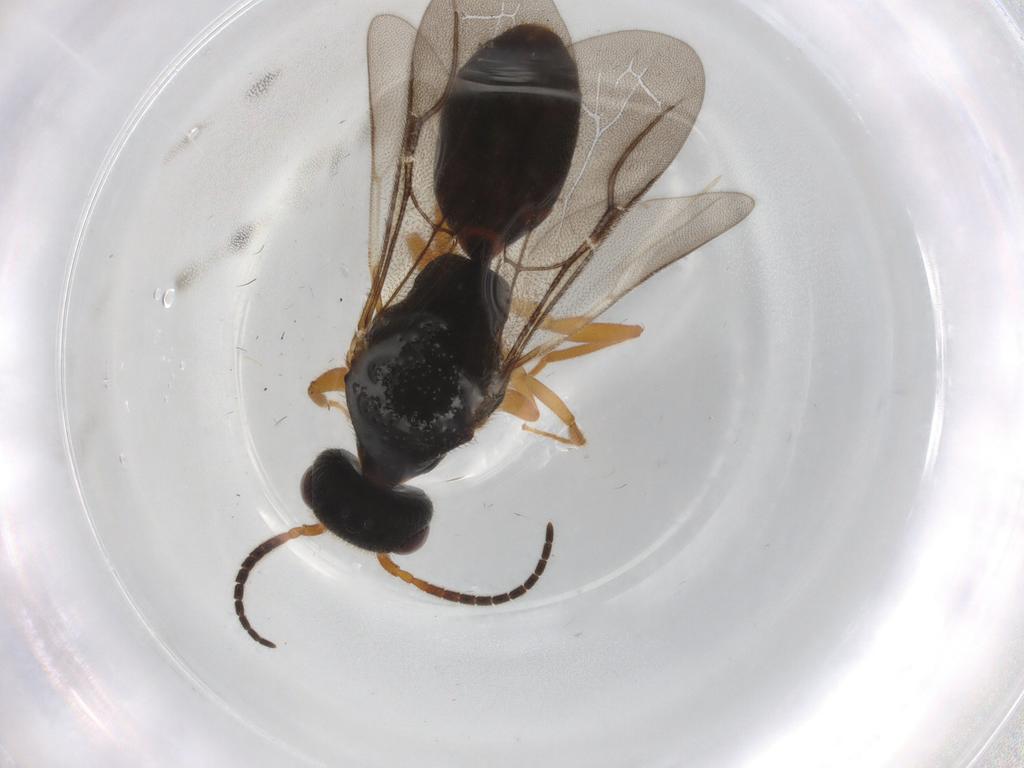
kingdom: Animalia
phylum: Arthropoda
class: Insecta
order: Hymenoptera
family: Bethylidae
